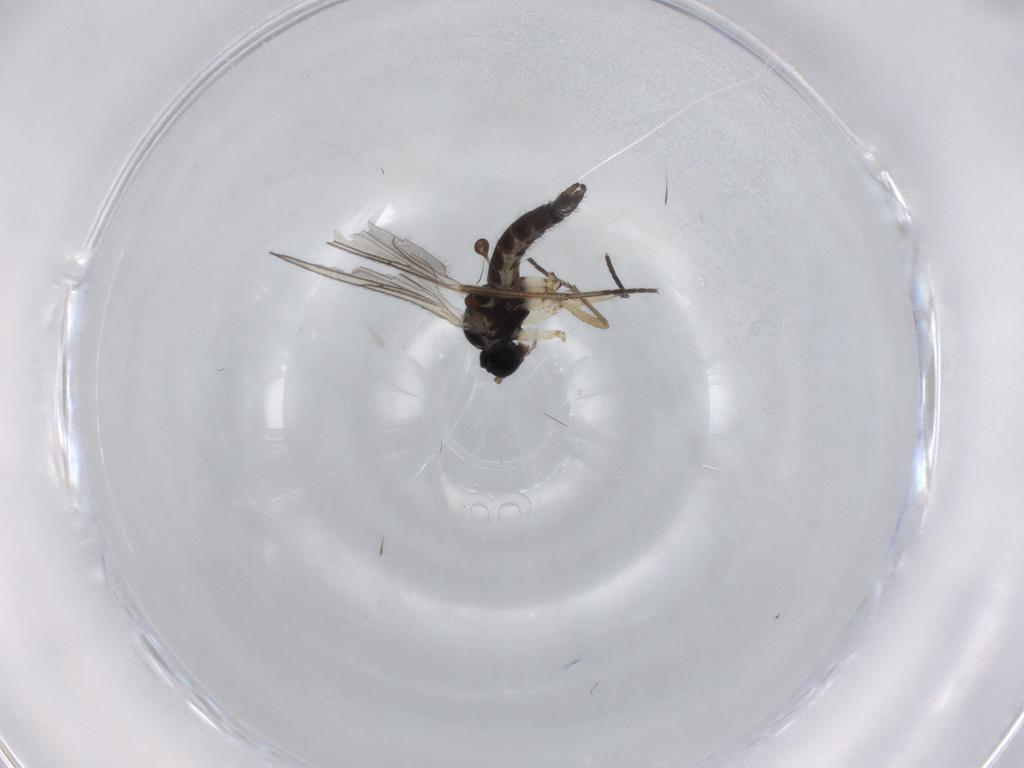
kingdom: Animalia
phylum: Arthropoda
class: Insecta
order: Diptera
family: Sciaridae
